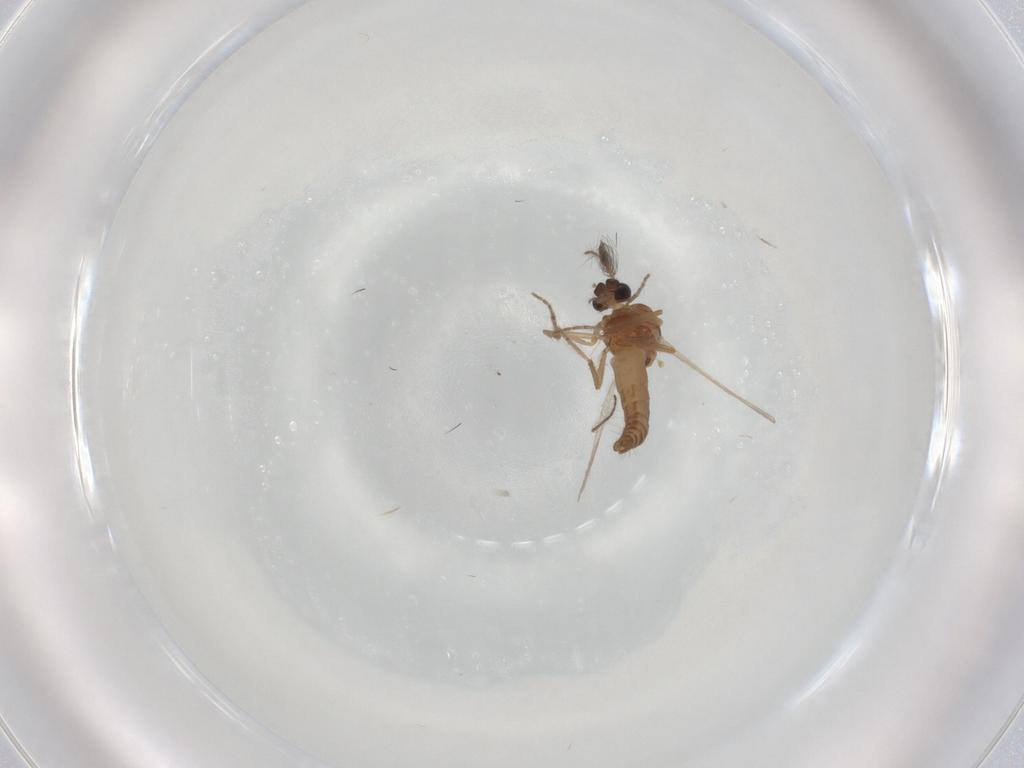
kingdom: Animalia
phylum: Arthropoda
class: Insecta
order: Diptera
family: Ceratopogonidae
